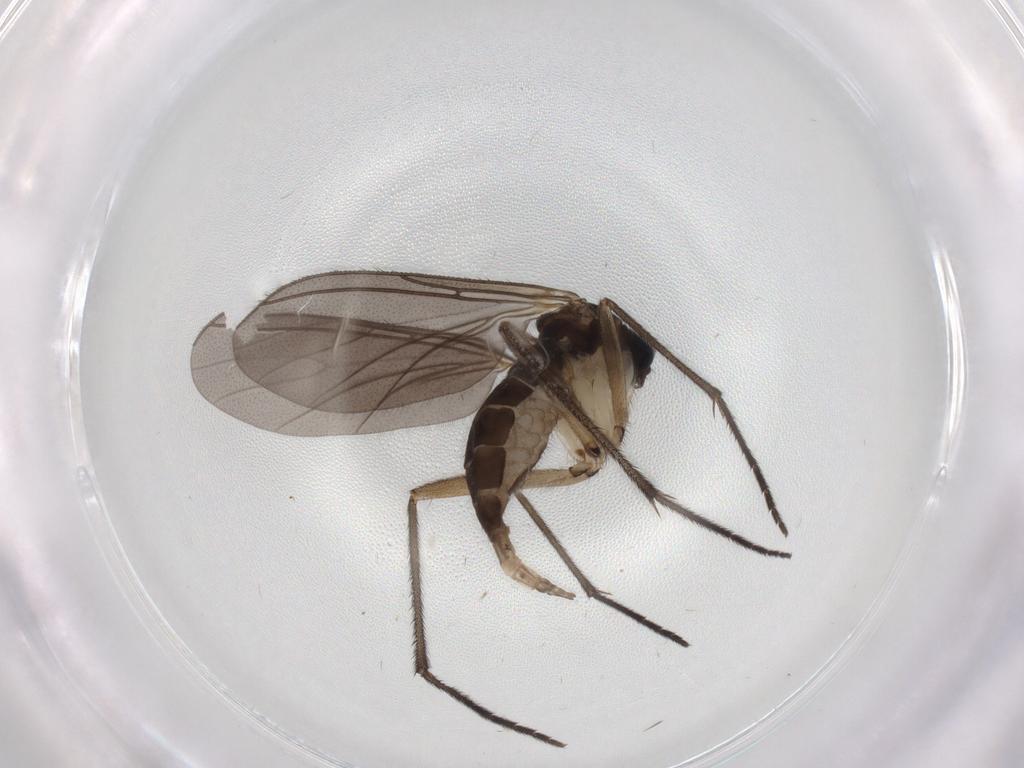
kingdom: Animalia
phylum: Arthropoda
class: Insecta
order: Diptera
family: Sciaridae
